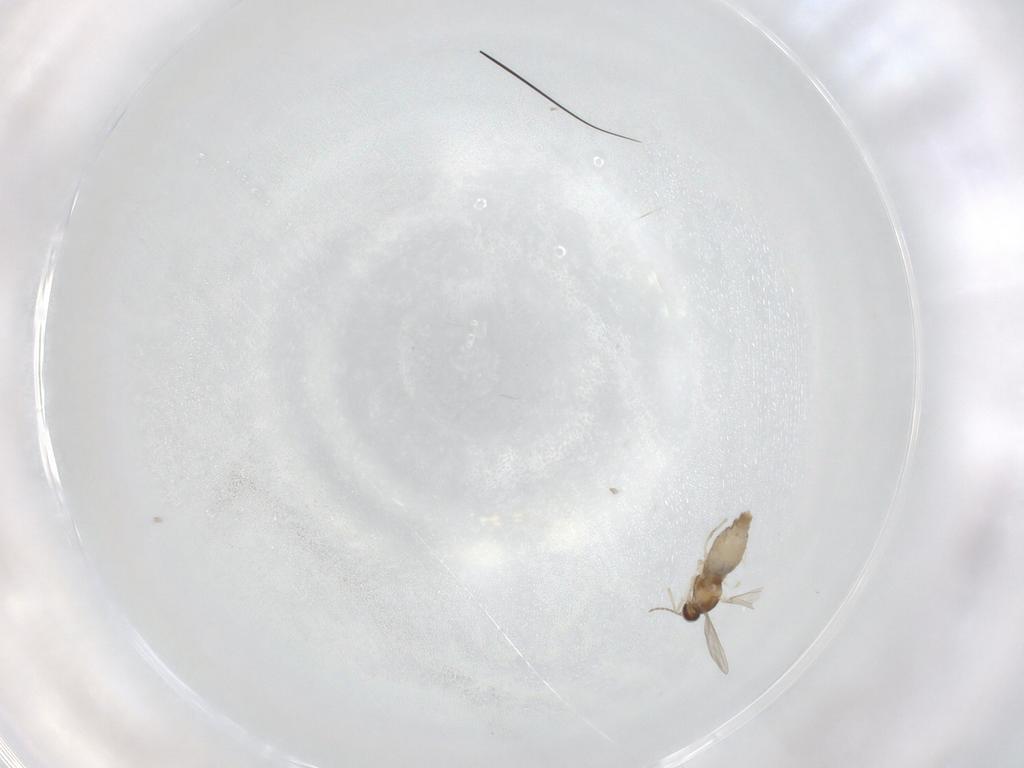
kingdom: Animalia
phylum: Arthropoda
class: Insecta
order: Diptera
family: Cecidomyiidae
